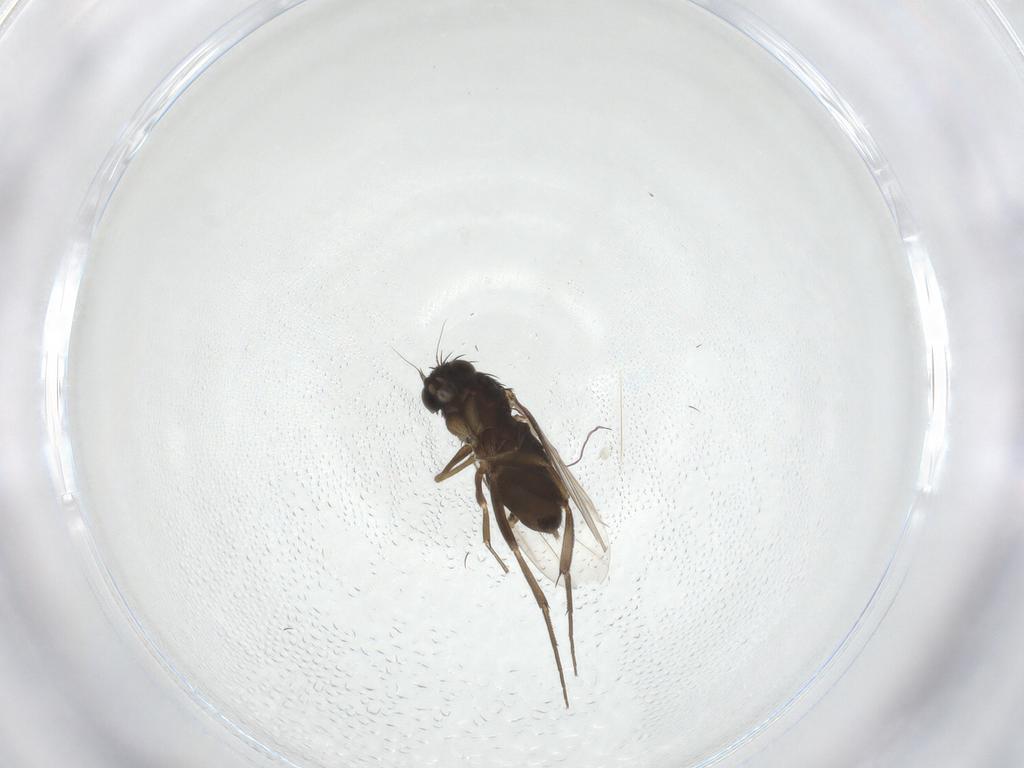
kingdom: Animalia
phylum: Arthropoda
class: Insecta
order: Diptera
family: Phoridae
